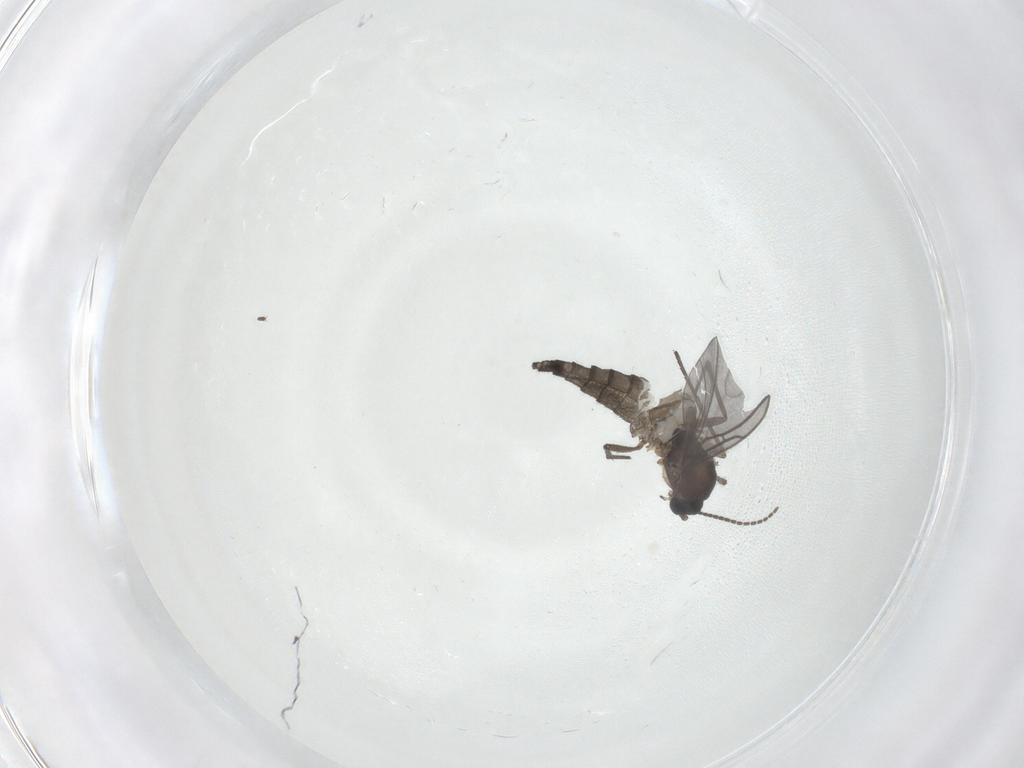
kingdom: Animalia
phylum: Arthropoda
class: Insecta
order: Diptera
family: Sciaridae
